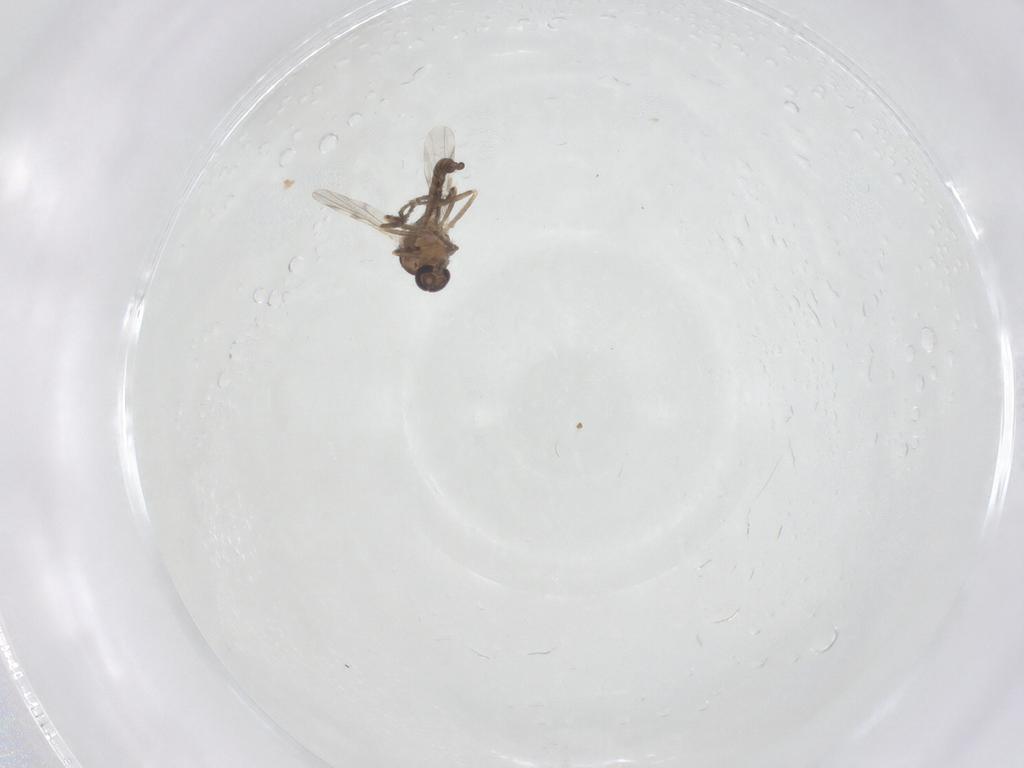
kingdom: Animalia
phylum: Arthropoda
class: Insecta
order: Diptera
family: Ceratopogonidae
